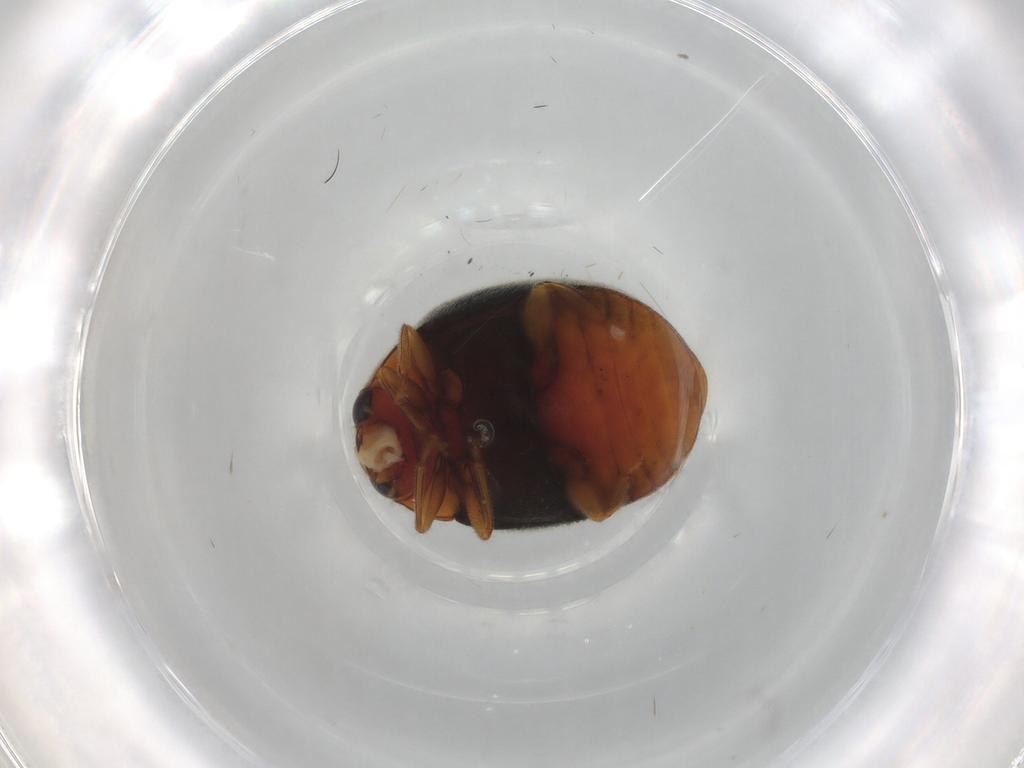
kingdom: Animalia
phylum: Arthropoda
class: Insecta
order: Coleoptera
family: Coccinellidae
